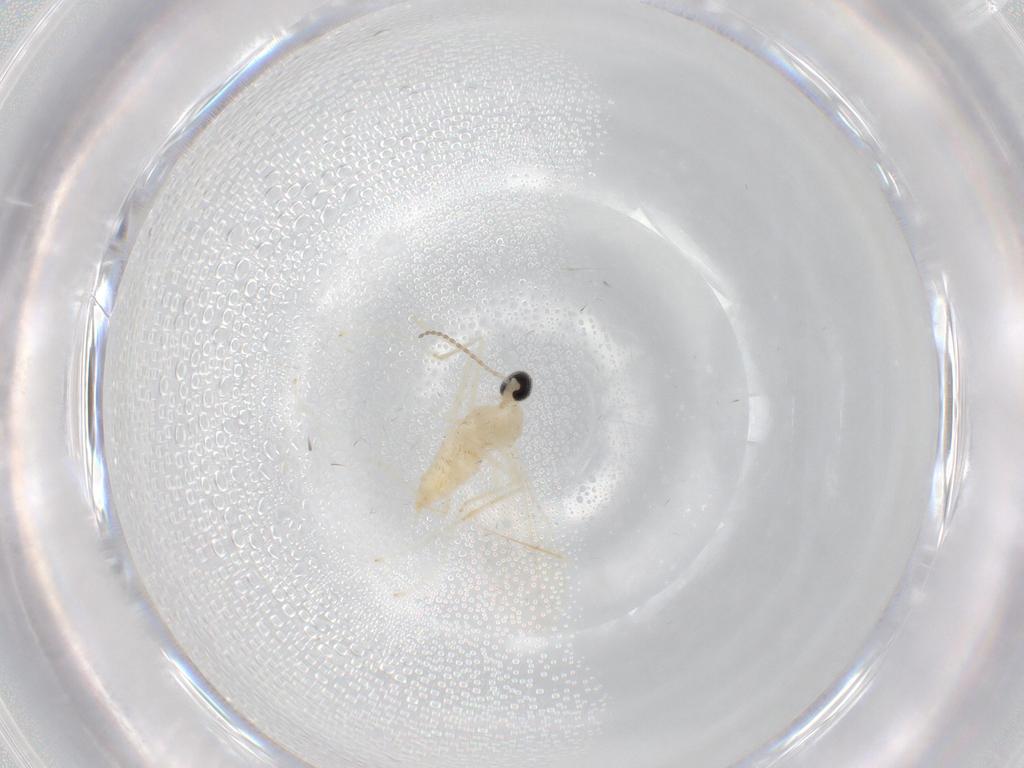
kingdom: Animalia
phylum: Arthropoda
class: Insecta
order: Diptera
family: Cecidomyiidae
